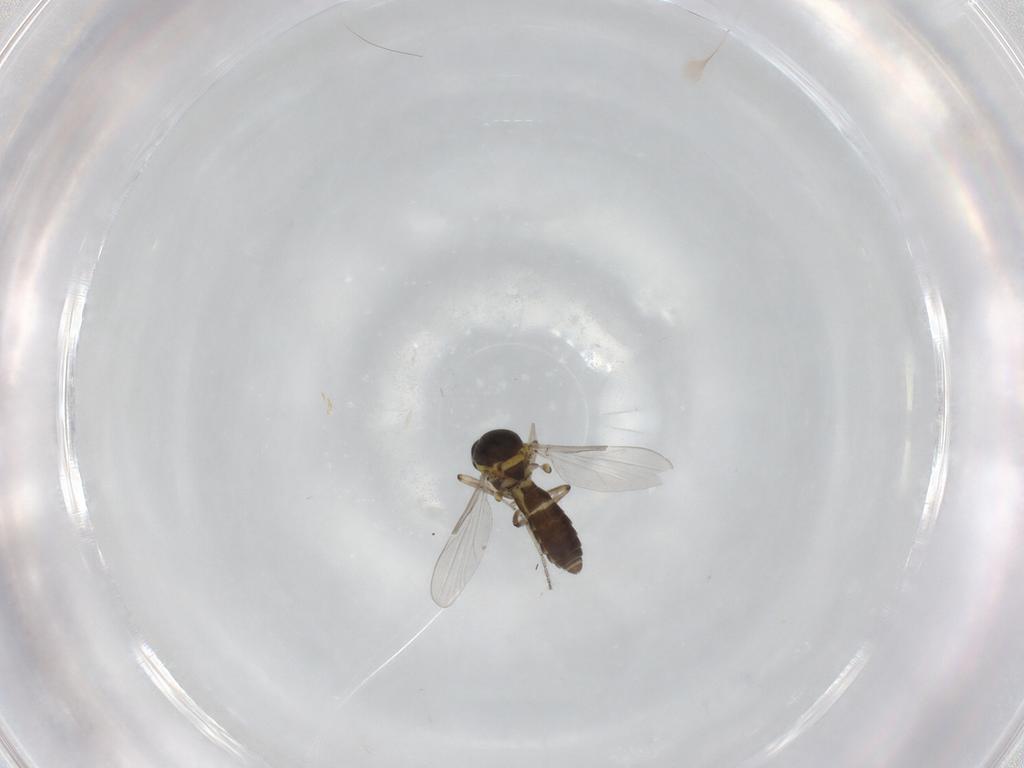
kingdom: Animalia
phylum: Arthropoda
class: Insecta
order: Diptera
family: Ceratopogonidae
